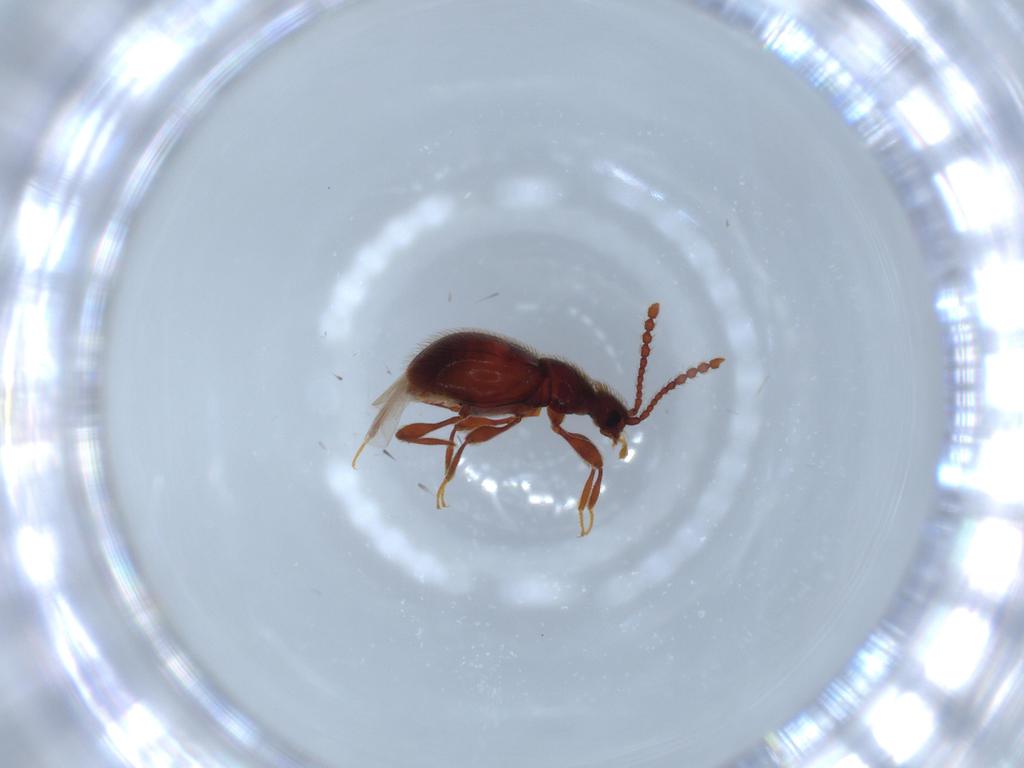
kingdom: Animalia
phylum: Arthropoda
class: Insecta
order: Coleoptera
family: Staphylinidae
